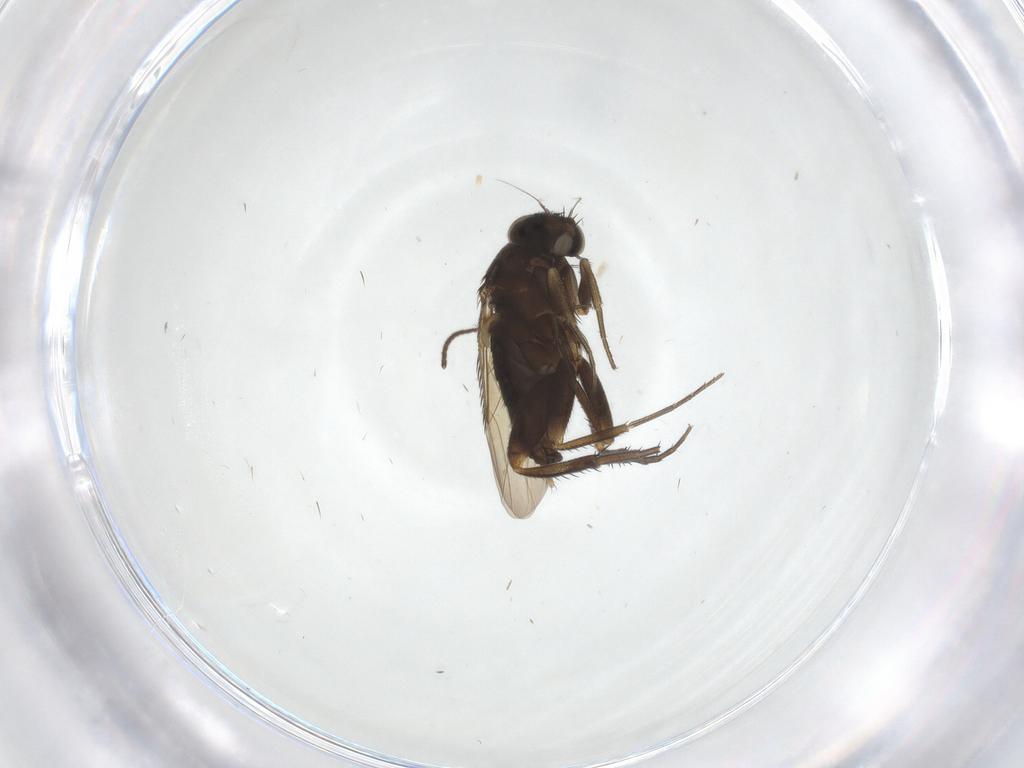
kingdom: Animalia
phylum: Arthropoda
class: Insecta
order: Diptera
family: Phoridae
